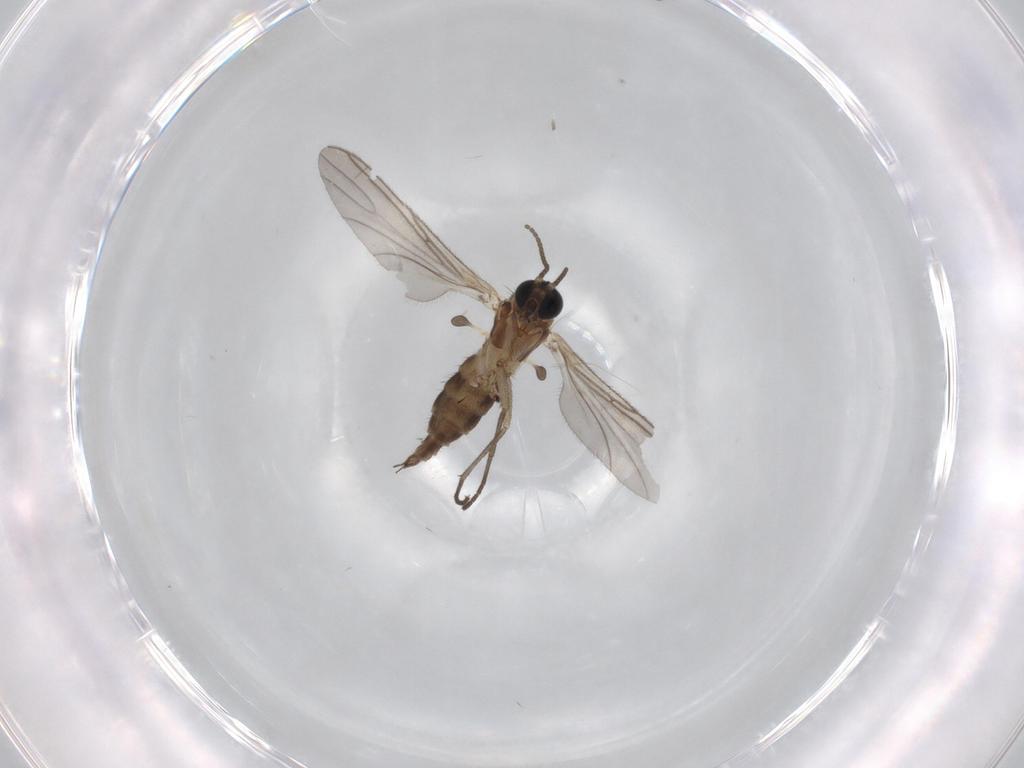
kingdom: Animalia
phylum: Arthropoda
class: Insecta
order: Diptera
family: Sciaridae
